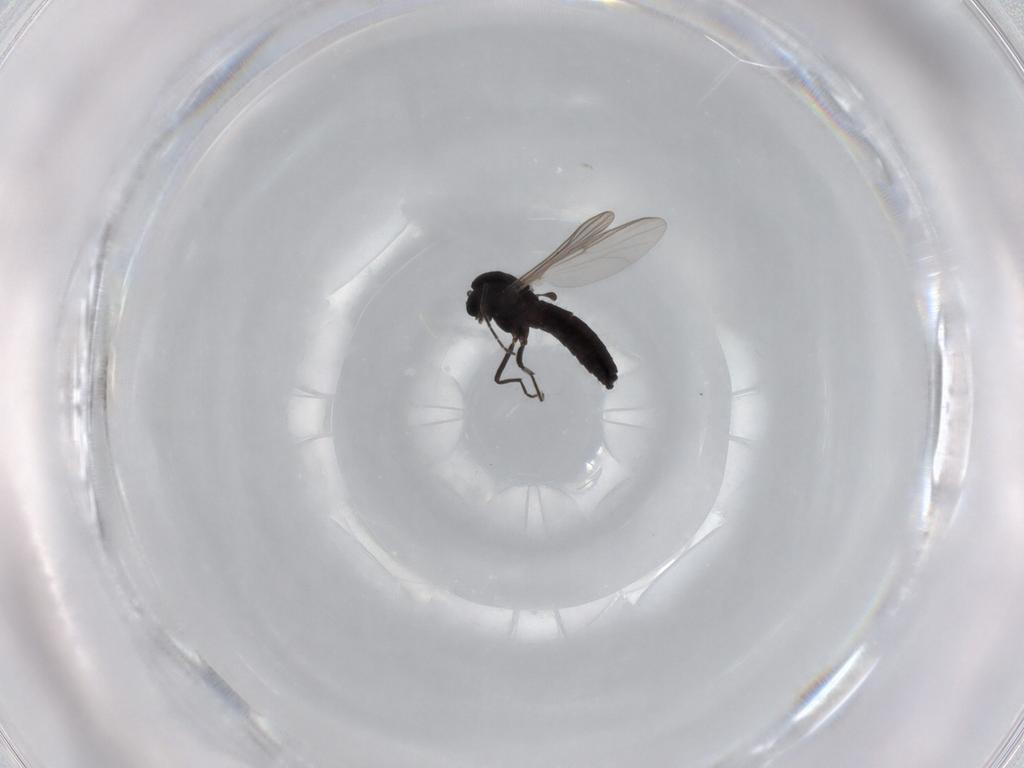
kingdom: Animalia
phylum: Arthropoda
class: Insecta
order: Diptera
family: Chironomidae
